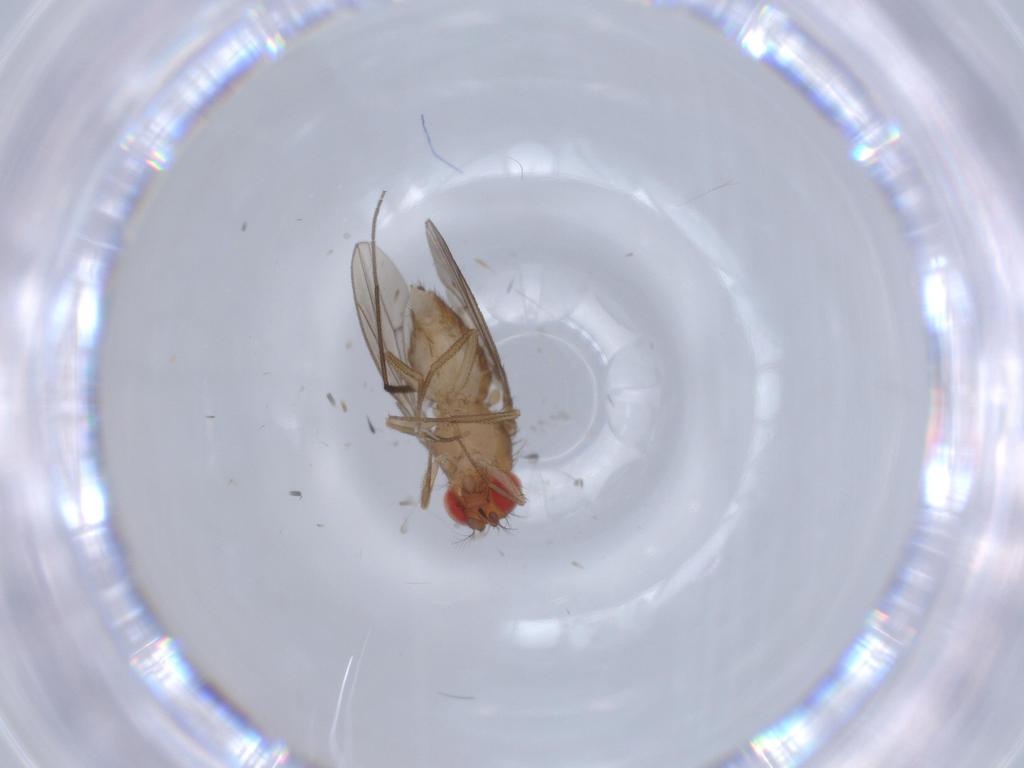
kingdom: Animalia
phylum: Arthropoda
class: Insecta
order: Diptera
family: Drosophilidae
